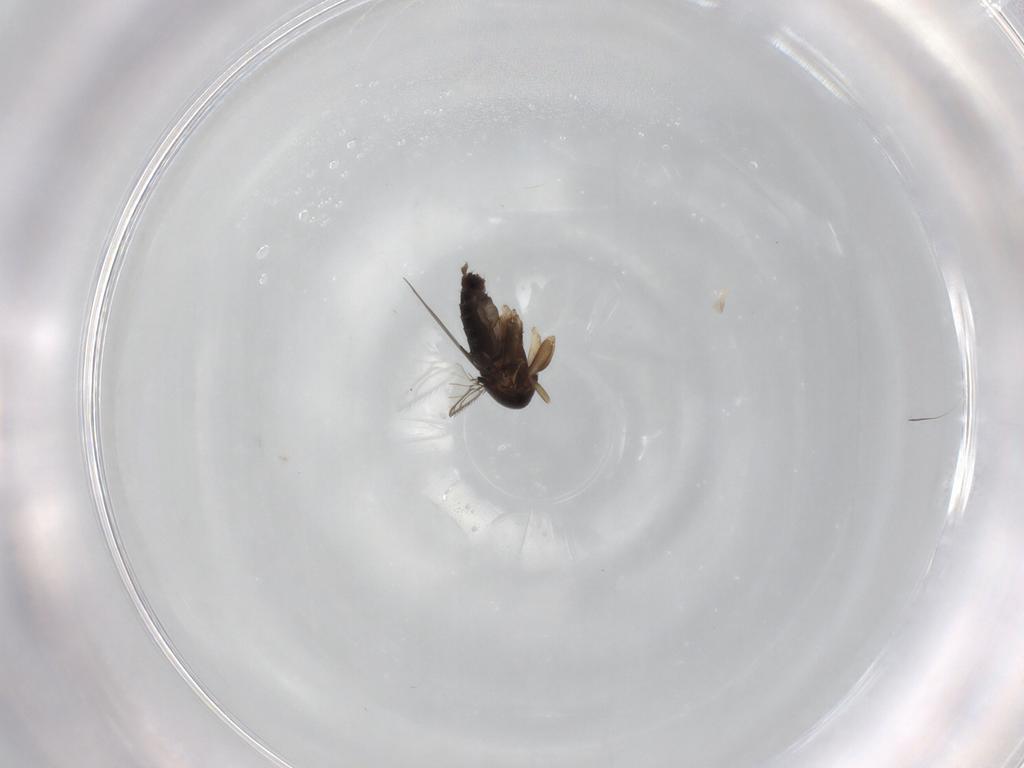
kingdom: Animalia
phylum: Arthropoda
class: Insecta
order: Diptera
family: Phoridae
